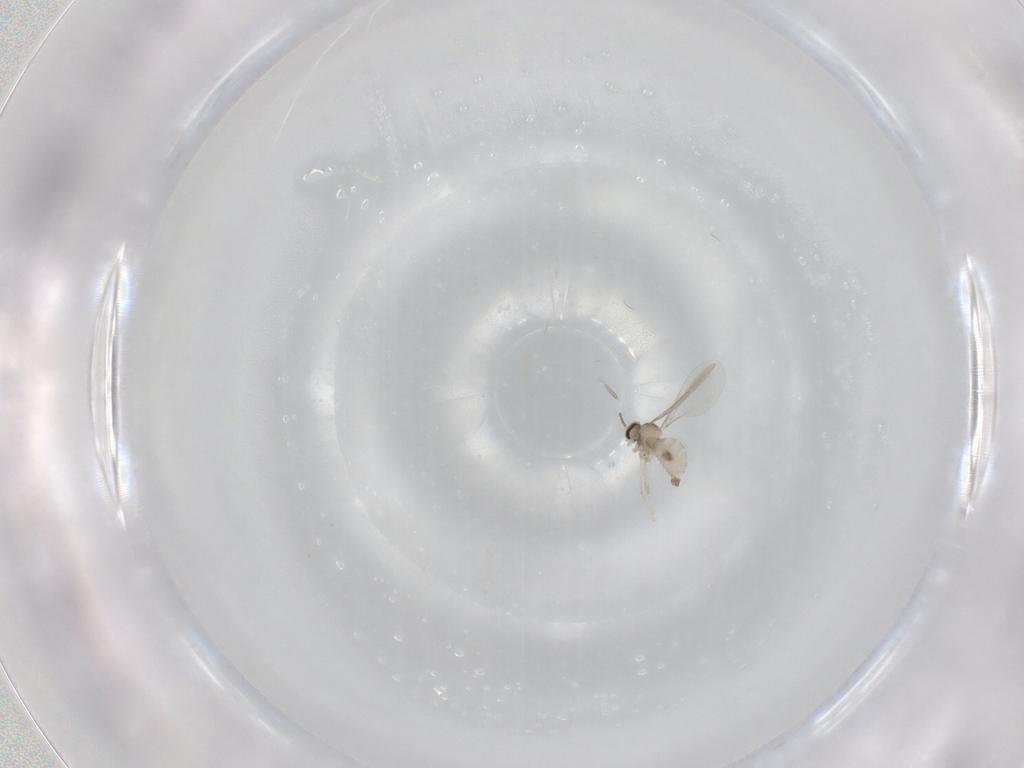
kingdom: Animalia
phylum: Arthropoda
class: Insecta
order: Diptera
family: Cecidomyiidae
